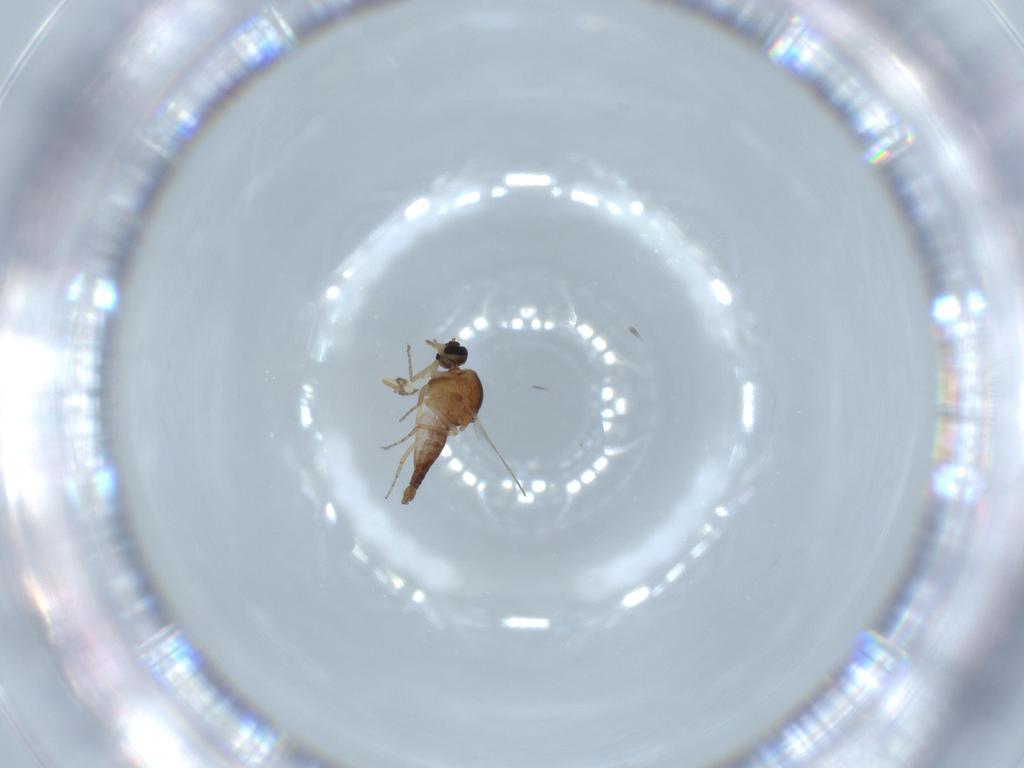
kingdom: Animalia
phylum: Arthropoda
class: Insecta
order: Diptera
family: Ceratopogonidae
